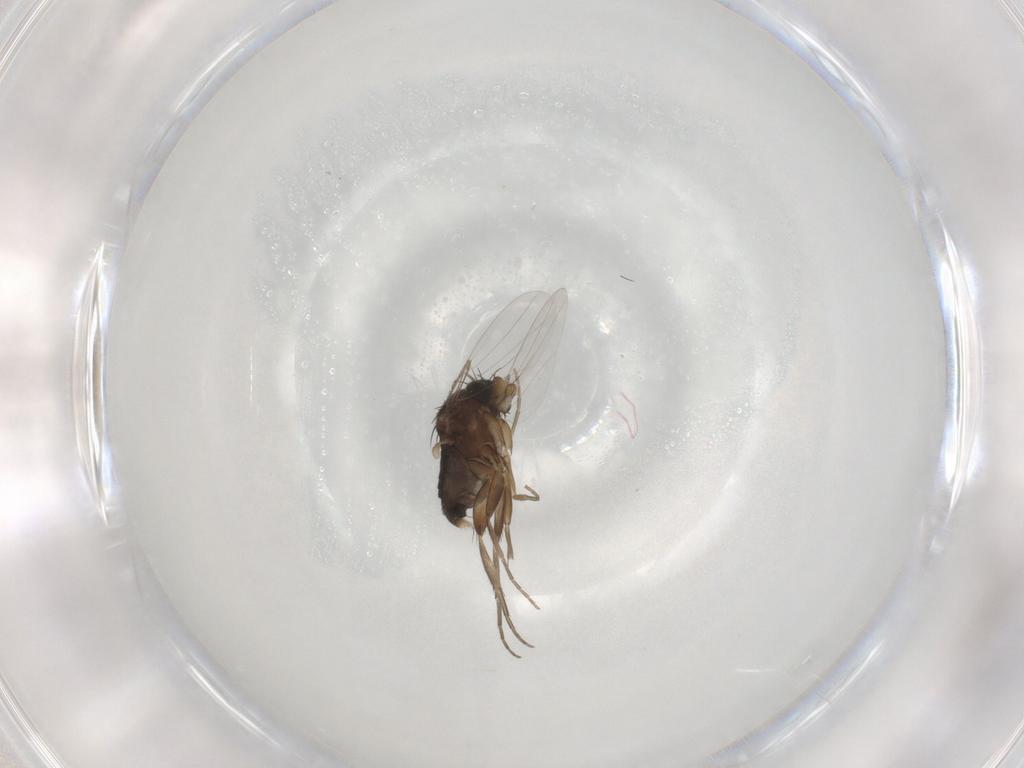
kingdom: Animalia
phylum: Arthropoda
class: Insecta
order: Diptera
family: Phoridae
